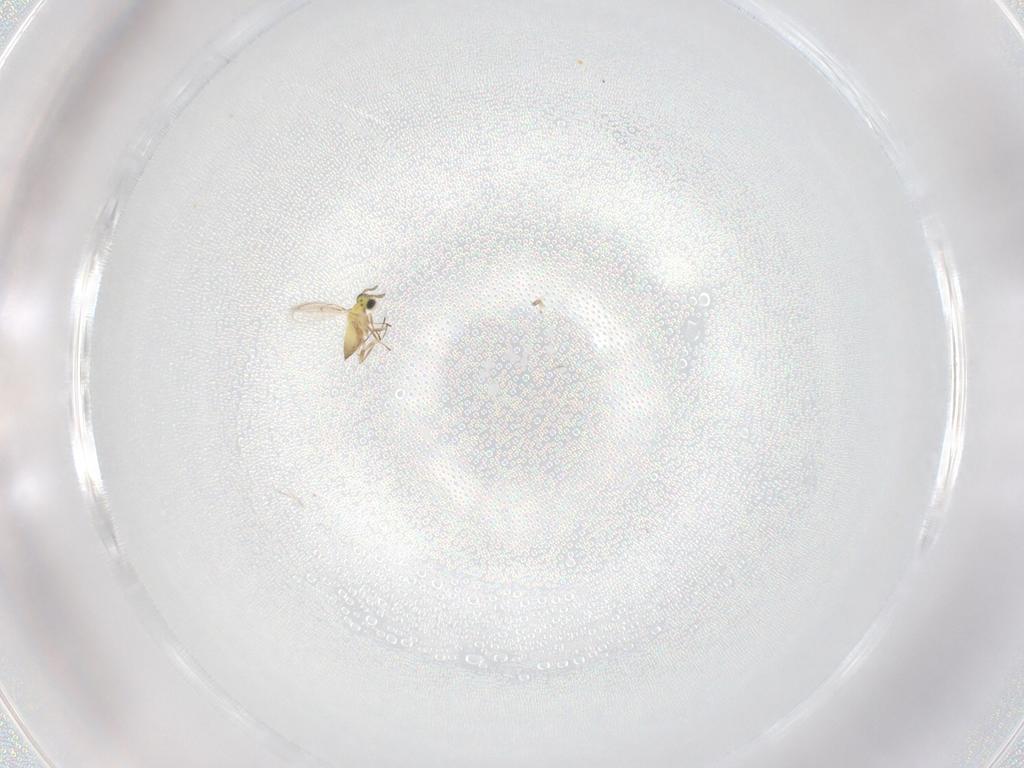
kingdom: Animalia
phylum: Arthropoda
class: Insecta
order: Hymenoptera
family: Trichogrammatidae
